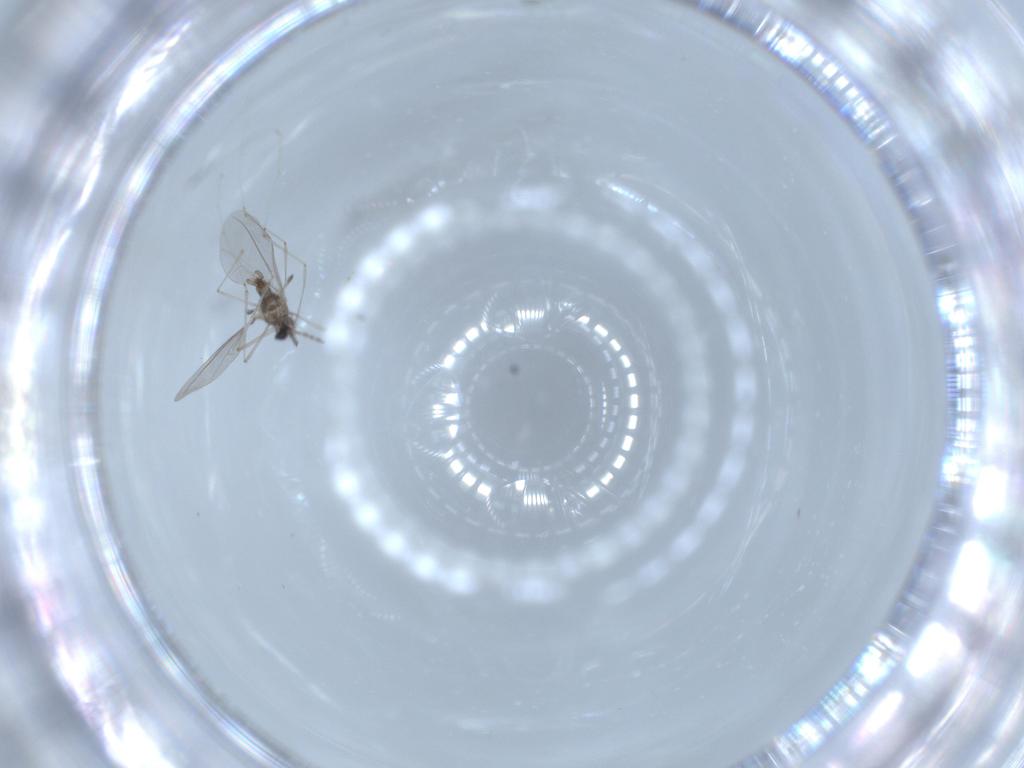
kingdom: Animalia
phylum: Arthropoda
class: Insecta
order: Diptera
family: Cecidomyiidae
